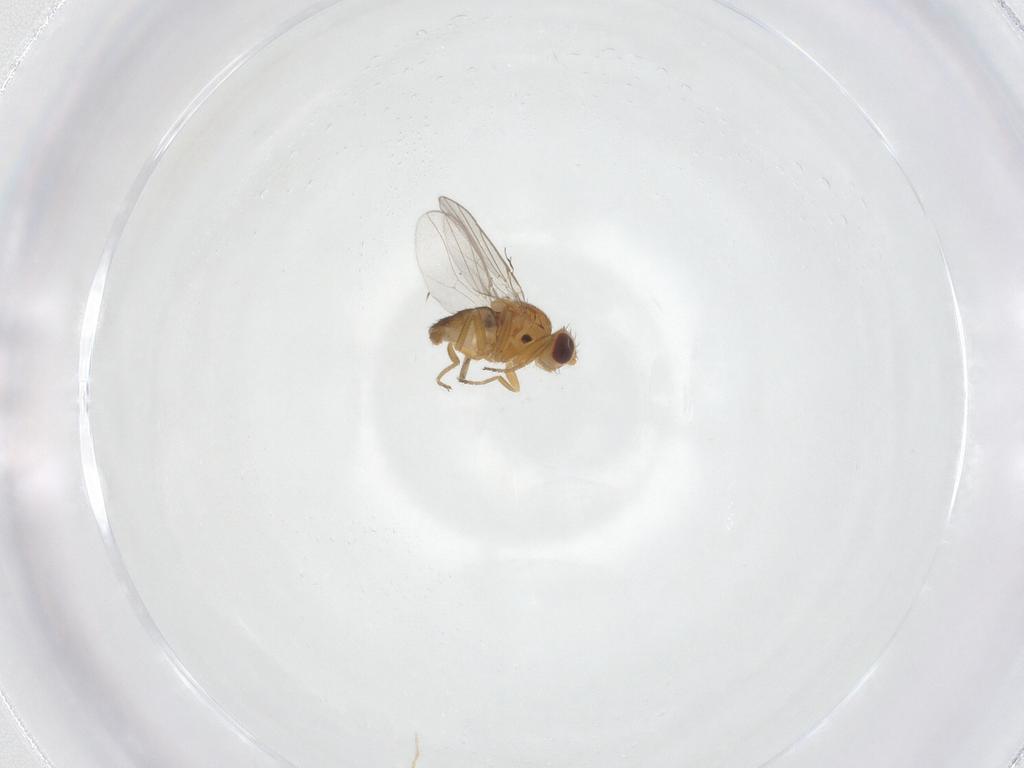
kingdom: Animalia
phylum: Arthropoda
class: Insecta
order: Diptera
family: Chloropidae
